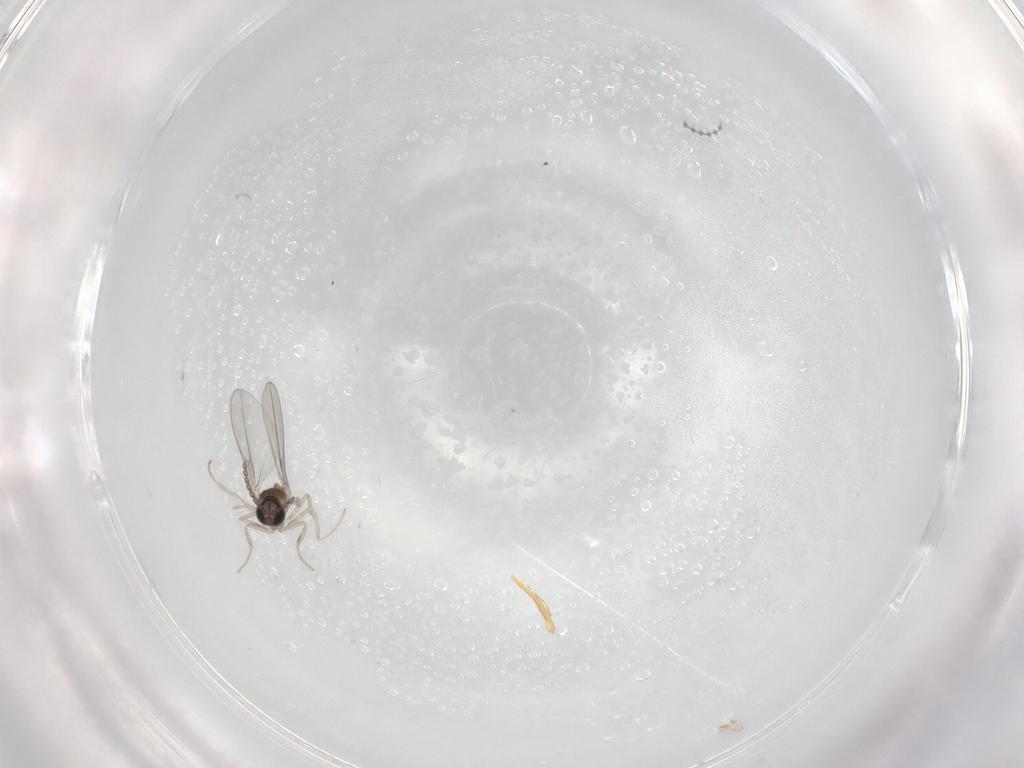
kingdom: Animalia
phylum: Arthropoda
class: Insecta
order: Diptera
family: Cecidomyiidae
